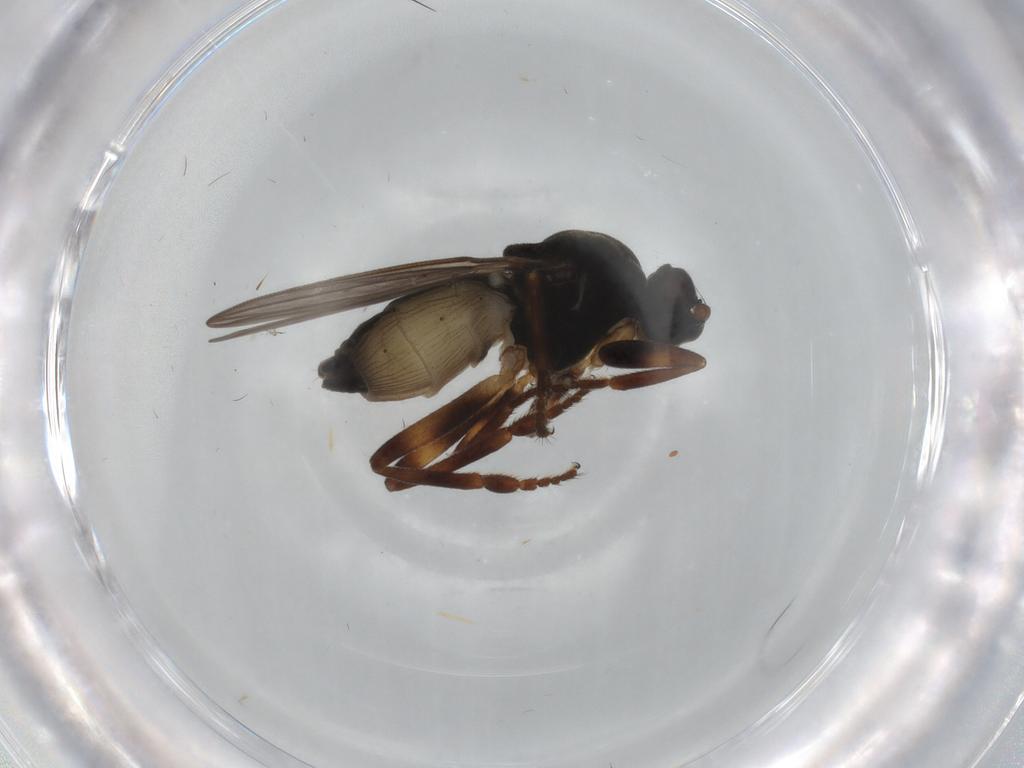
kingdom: Animalia
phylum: Arthropoda
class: Insecta
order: Diptera
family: Sphaeroceridae
